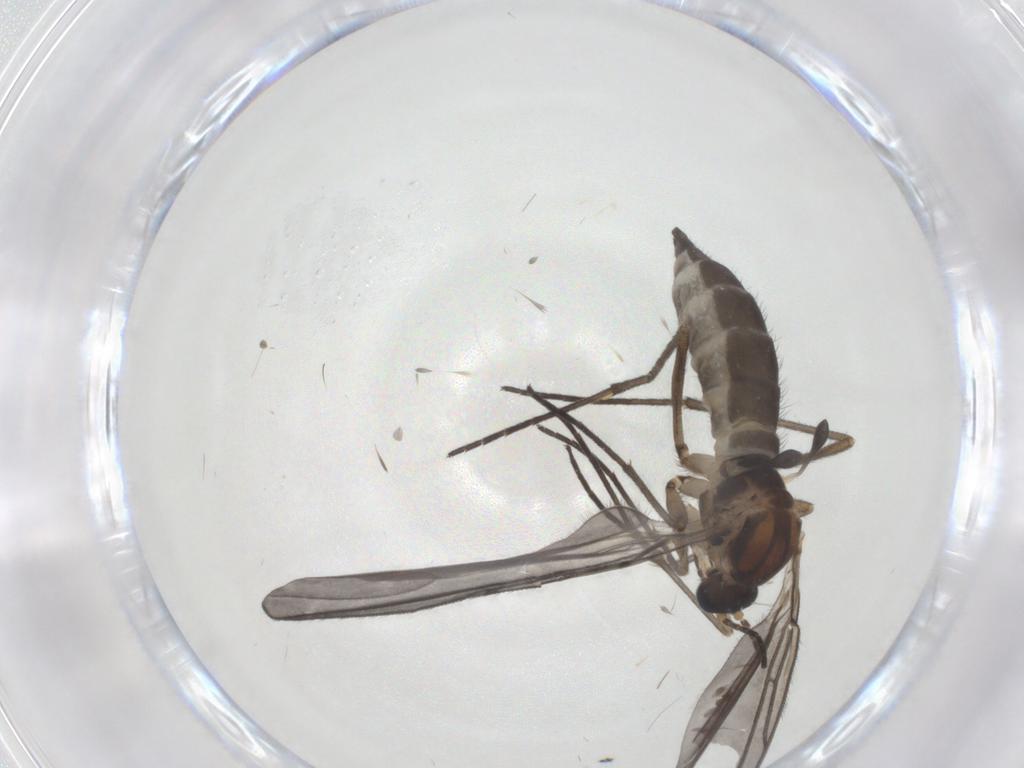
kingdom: Animalia
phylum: Arthropoda
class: Insecta
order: Diptera
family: Sciaridae
